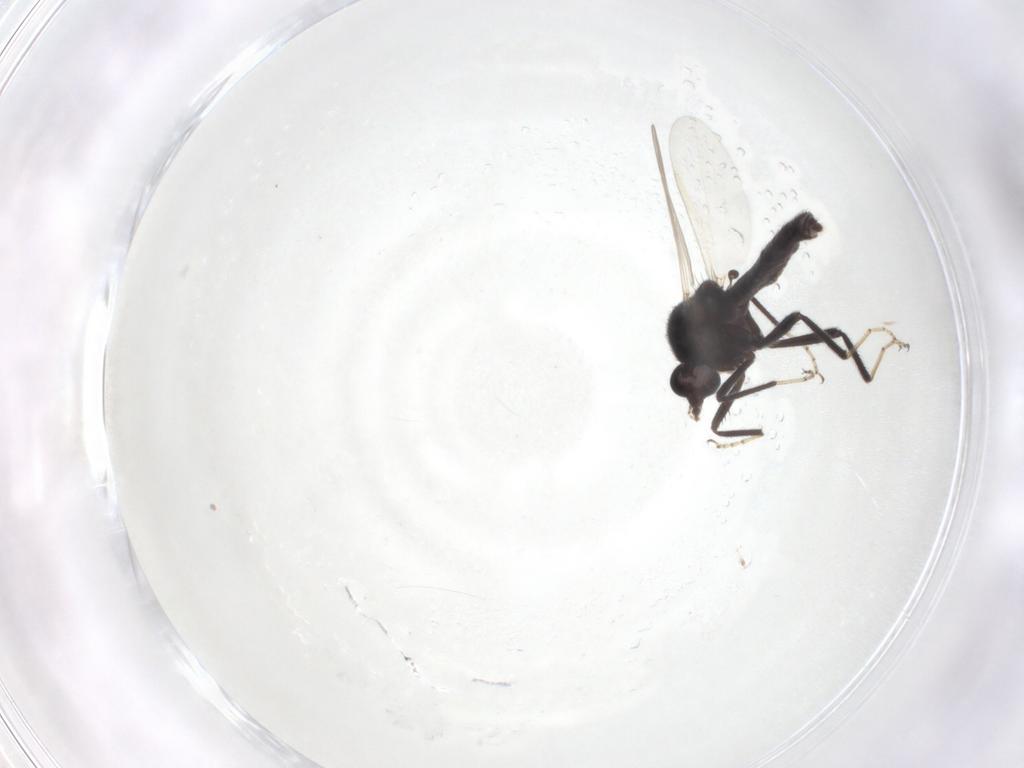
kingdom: Animalia
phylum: Arthropoda
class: Insecta
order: Diptera
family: Ceratopogonidae
